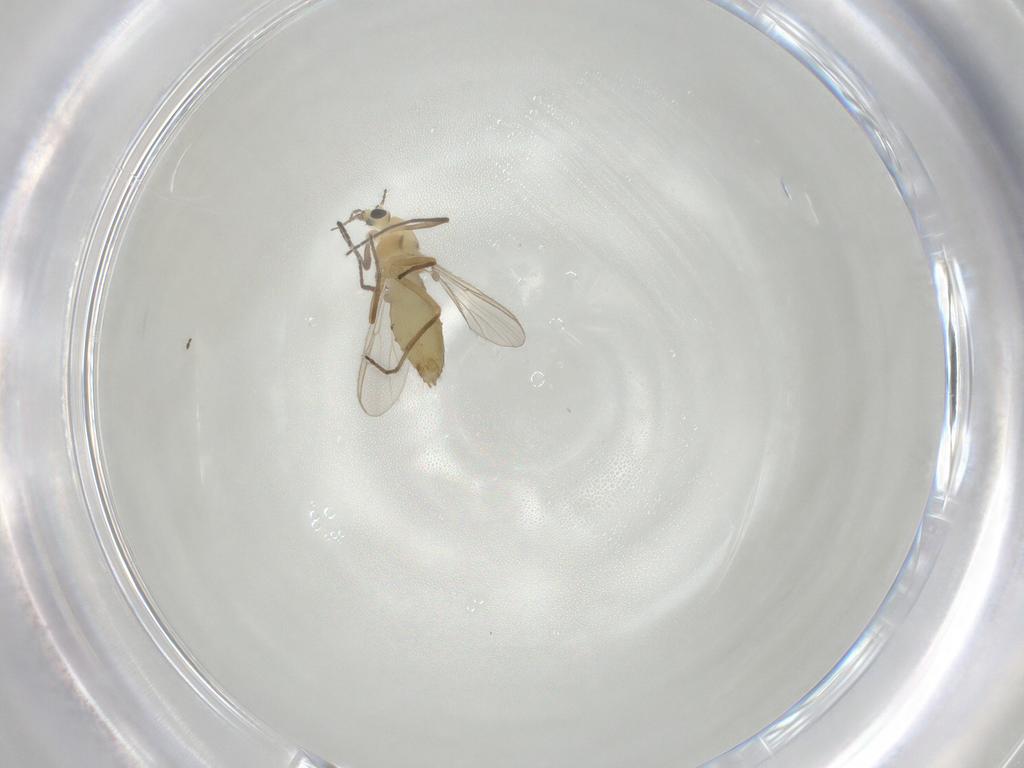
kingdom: Animalia
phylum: Arthropoda
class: Insecta
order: Diptera
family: Chironomidae
